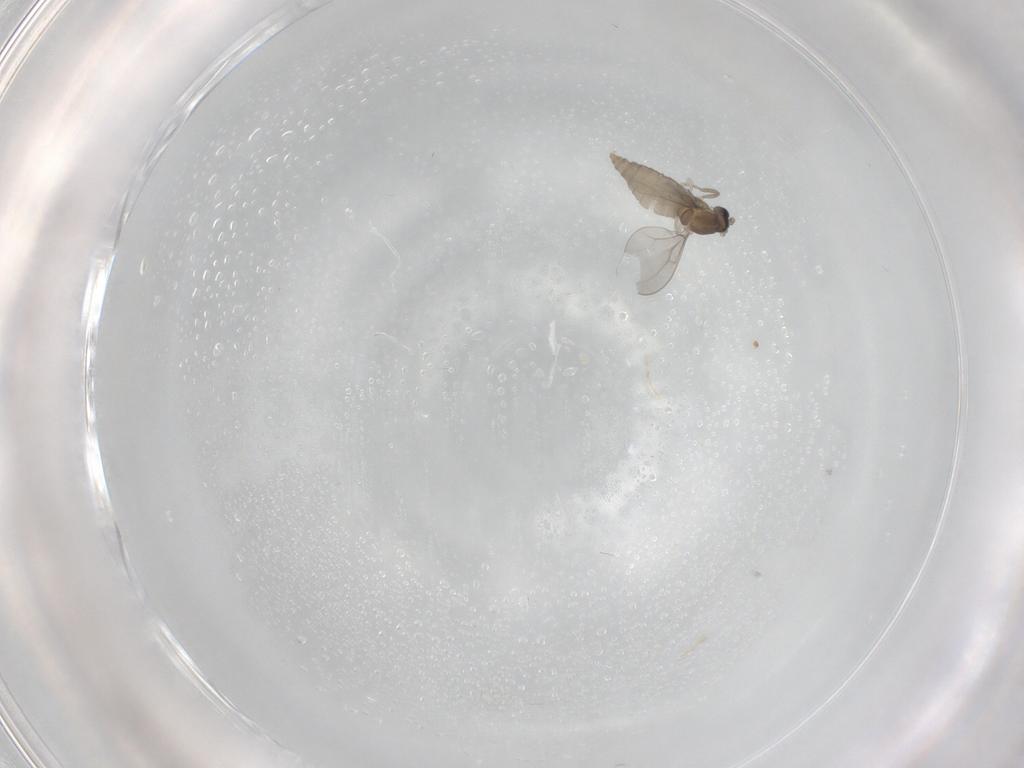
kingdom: Animalia
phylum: Arthropoda
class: Insecta
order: Diptera
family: Cecidomyiidae
